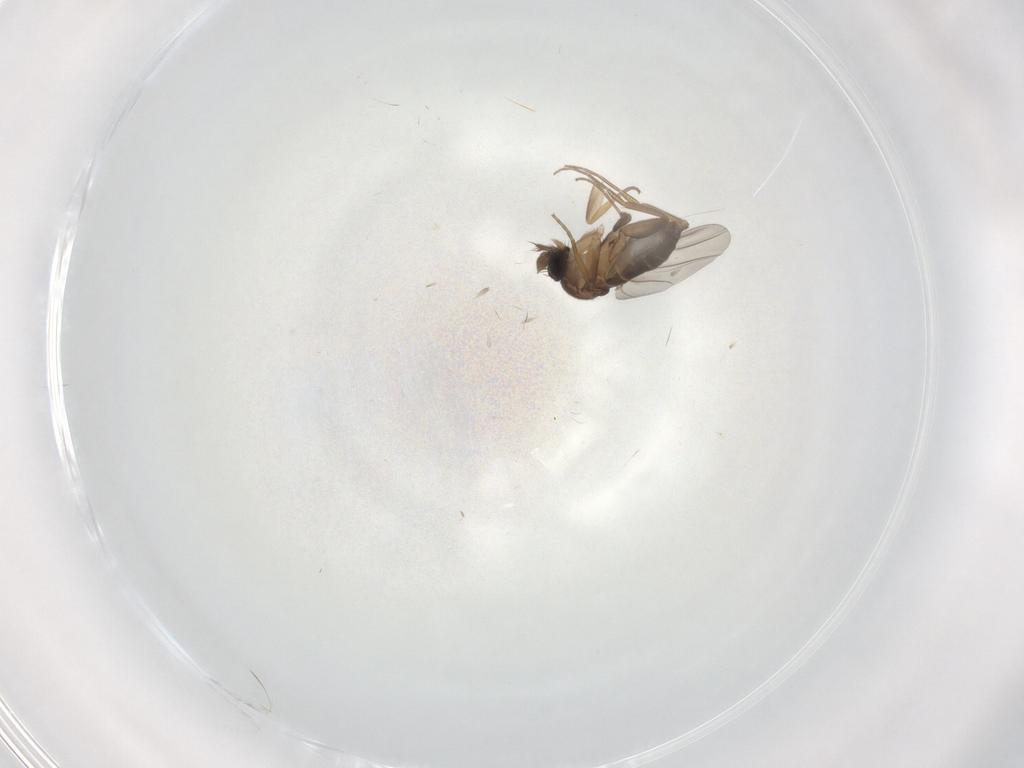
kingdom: Animalia
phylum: Arthropoda
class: Insecta
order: Diptera
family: Phoridae
